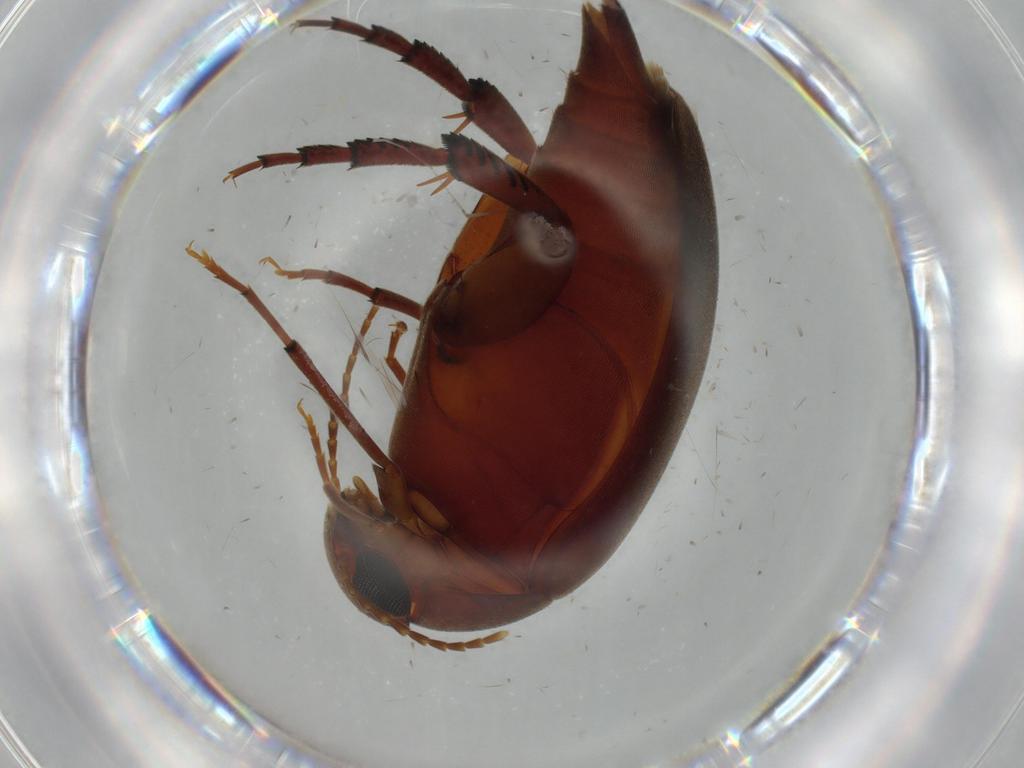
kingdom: Animalia
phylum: Arthropoda
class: Insecta
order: Coleoptera
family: Mordellidae
